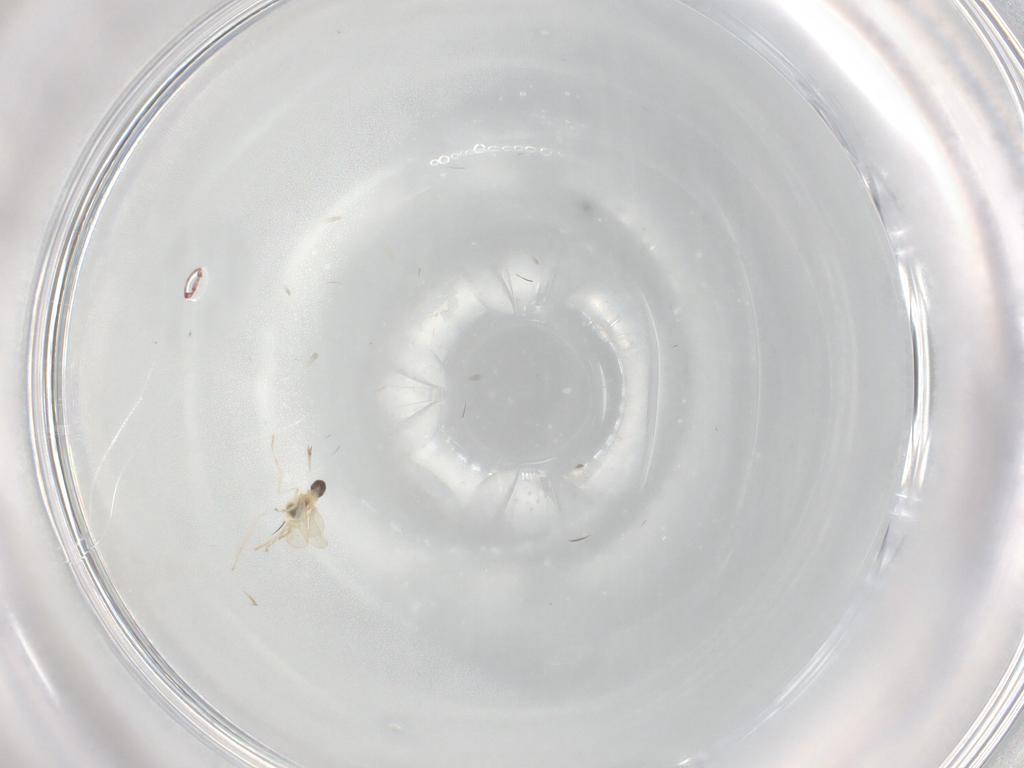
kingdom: Animalia
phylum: Arthropoda
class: Insecta
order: Diptera
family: Cecidomyiidae
